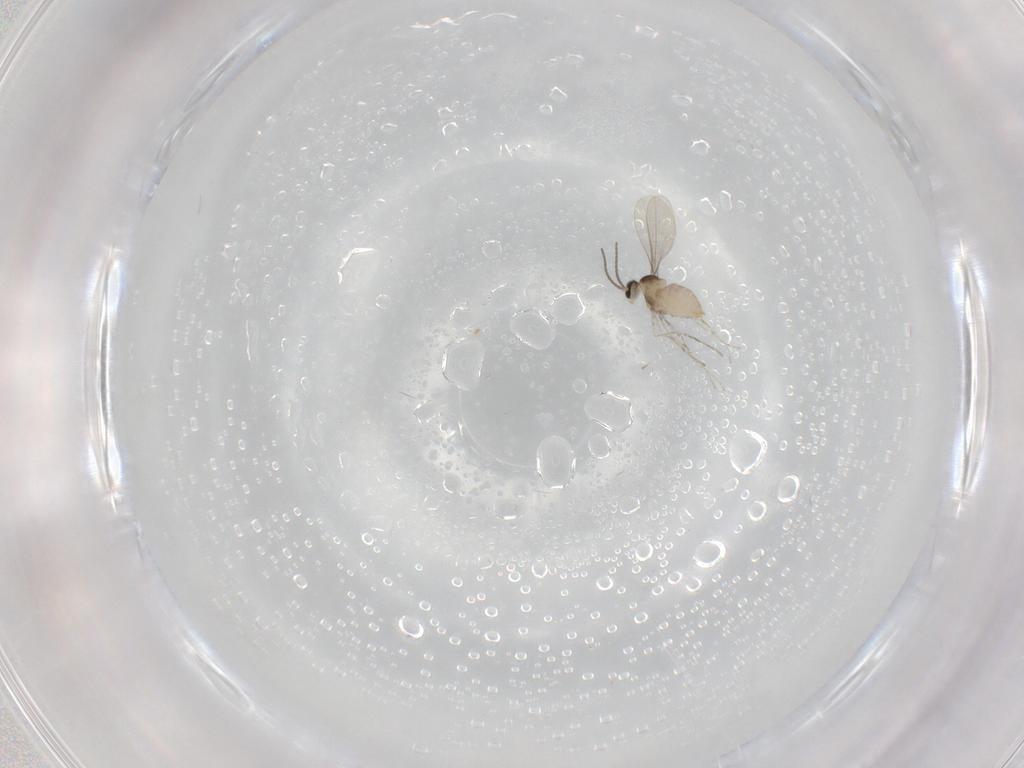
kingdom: Animalia
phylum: Arthropoda
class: Insecta
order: Diptera
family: Cecidomyiidae
